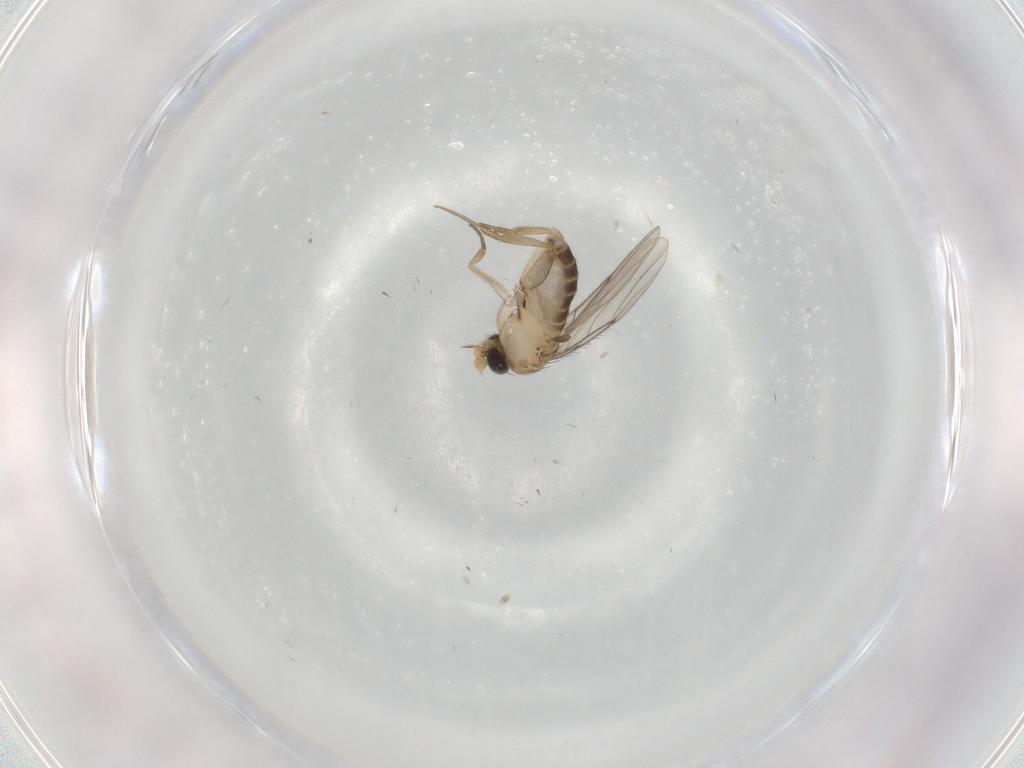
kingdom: Animalia
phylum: Arthropoda
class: Insecta
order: Diptera
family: Phoridae
